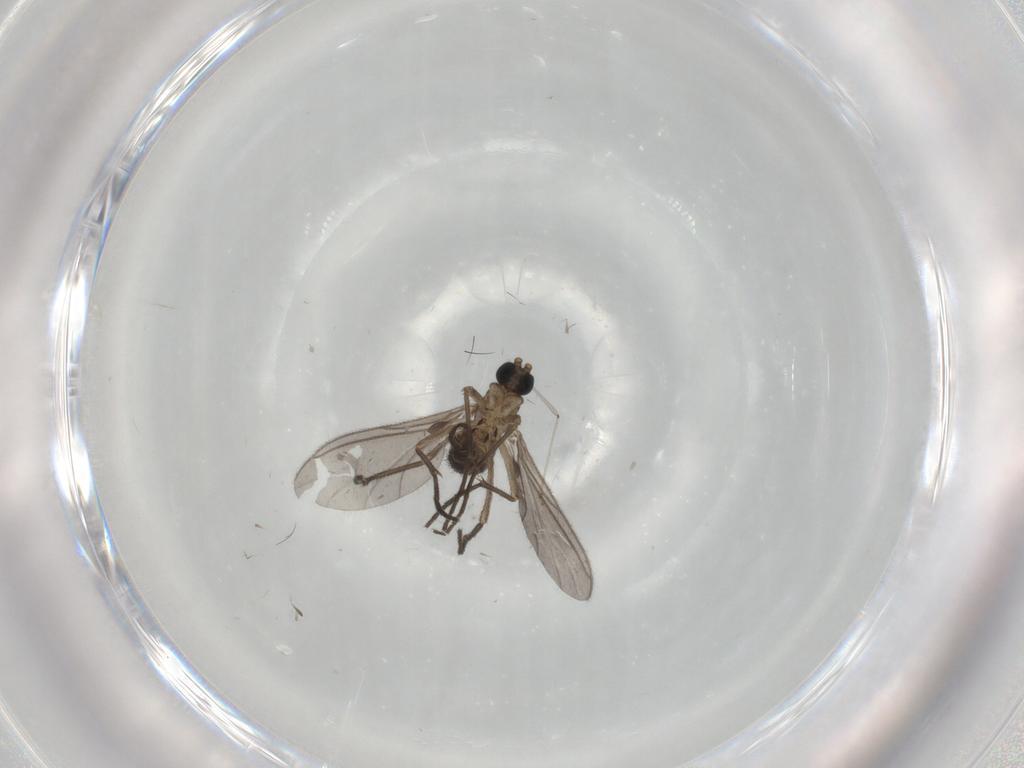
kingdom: Animalia
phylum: Arthropoda
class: Insecta
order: Diptera
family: Sciaridae
